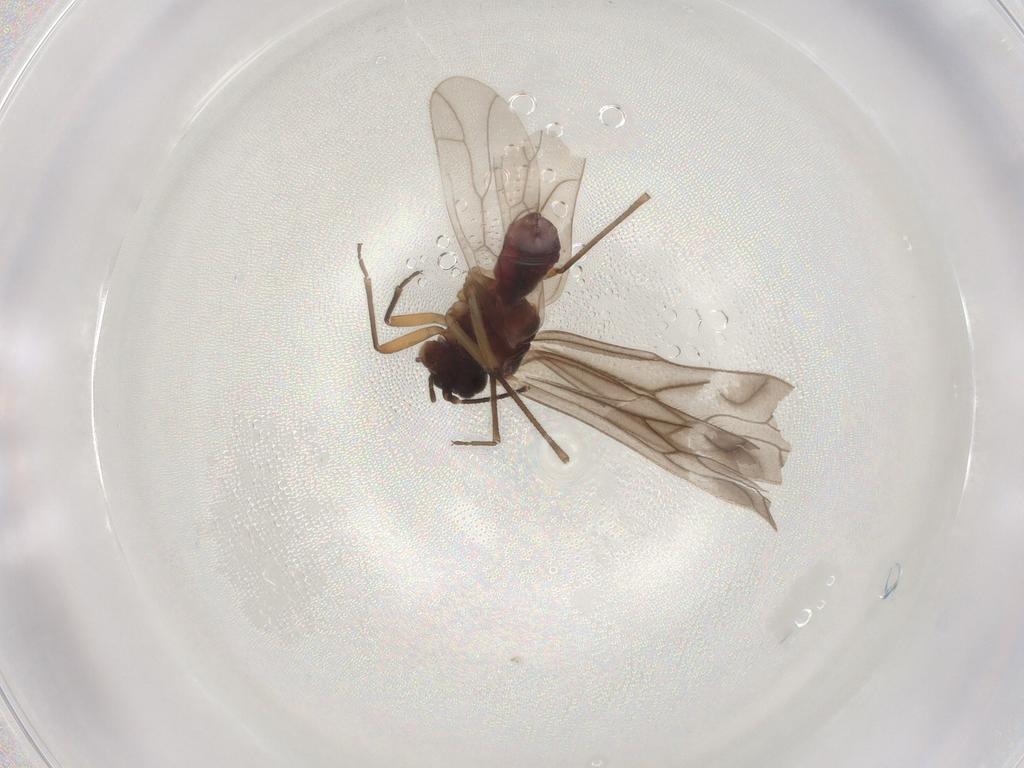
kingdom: Animalia
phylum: Arthropoda
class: Insecta
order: Psocodea
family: Trichopsocidae
